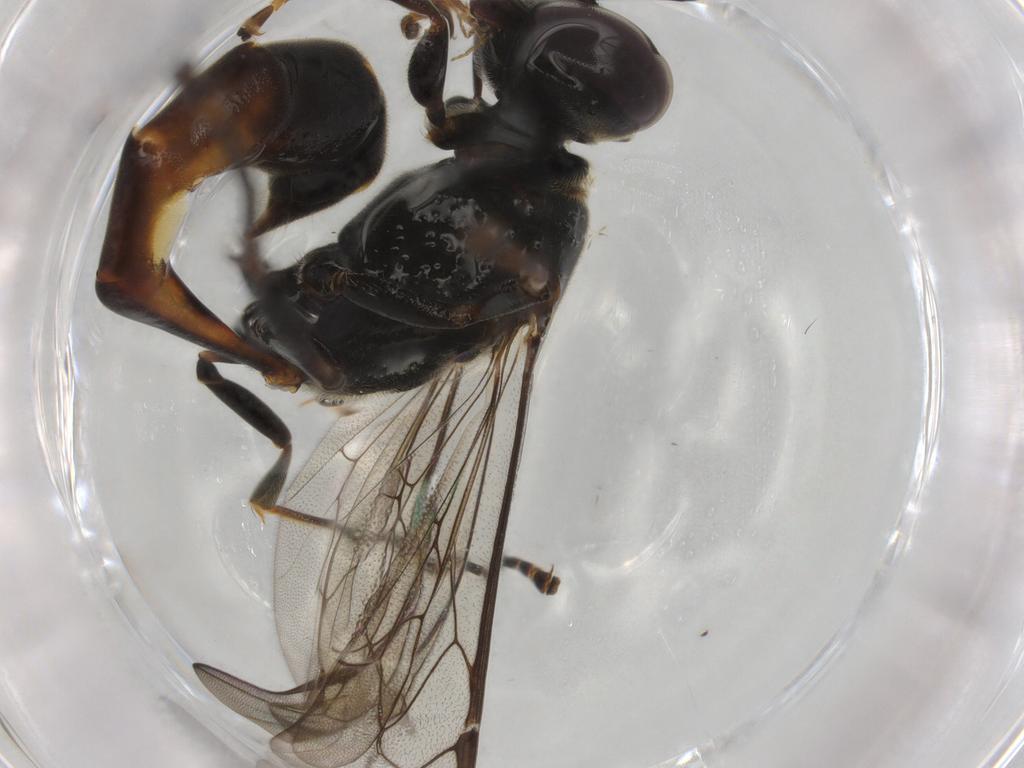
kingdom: Animalia
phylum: Arthropoda
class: Insecta
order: Hymenoptera
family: Crabronidae
